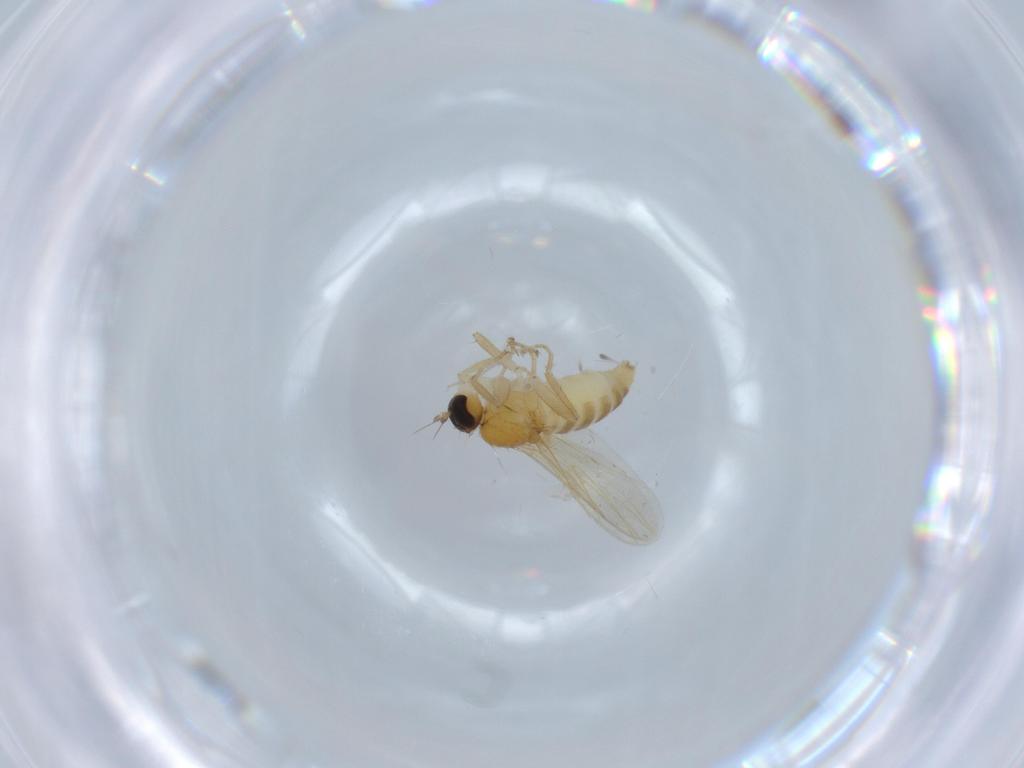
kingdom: Animalia
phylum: Arthropoda
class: Insecta
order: Diptera
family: Hybotidae
